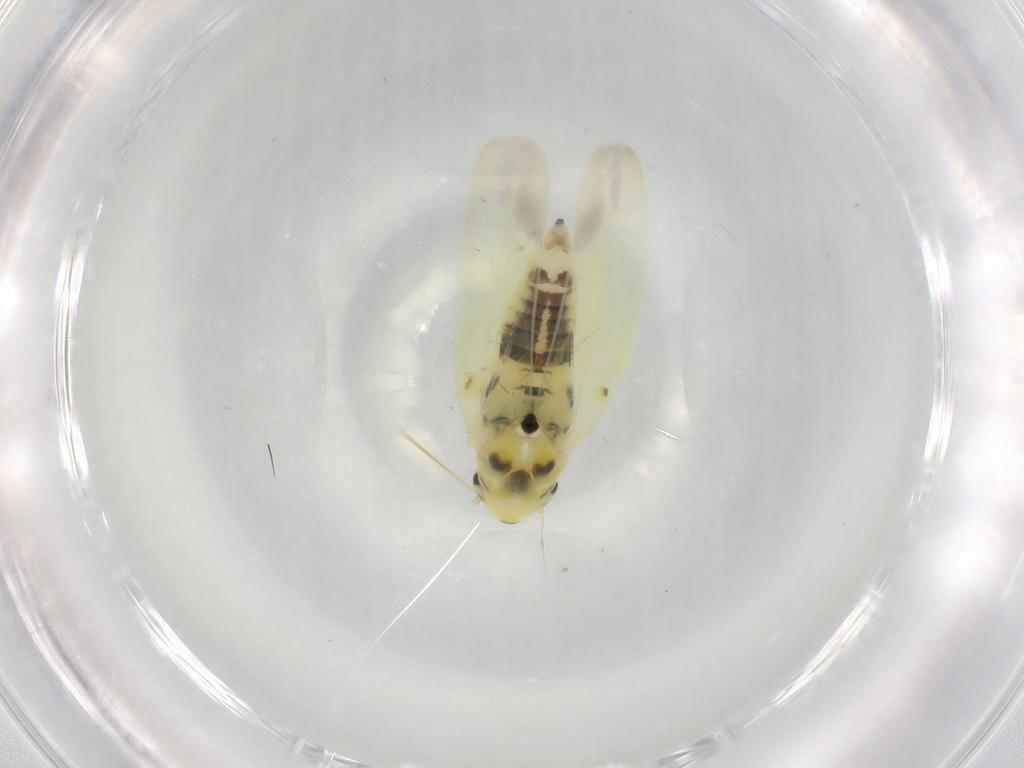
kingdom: Animalia
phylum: Arthropoda
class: Insecta
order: Hemiptera
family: Cicadellidae
